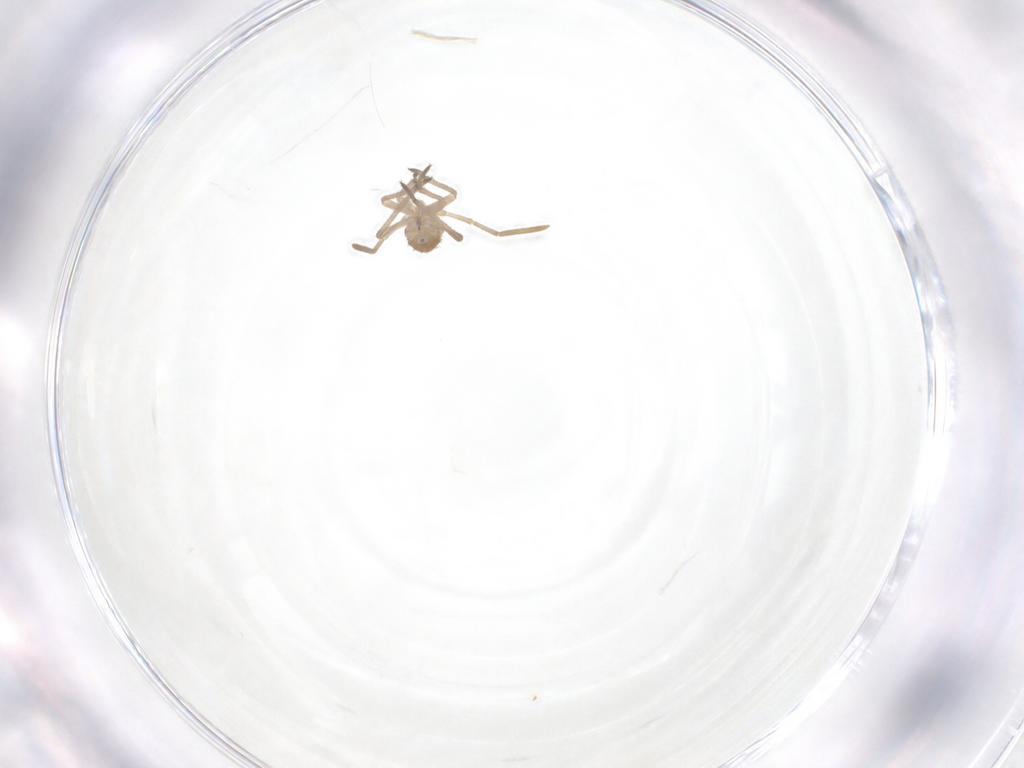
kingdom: Animalia
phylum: Arthropoda
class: Insecta
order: Hemiptera
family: Miridae
